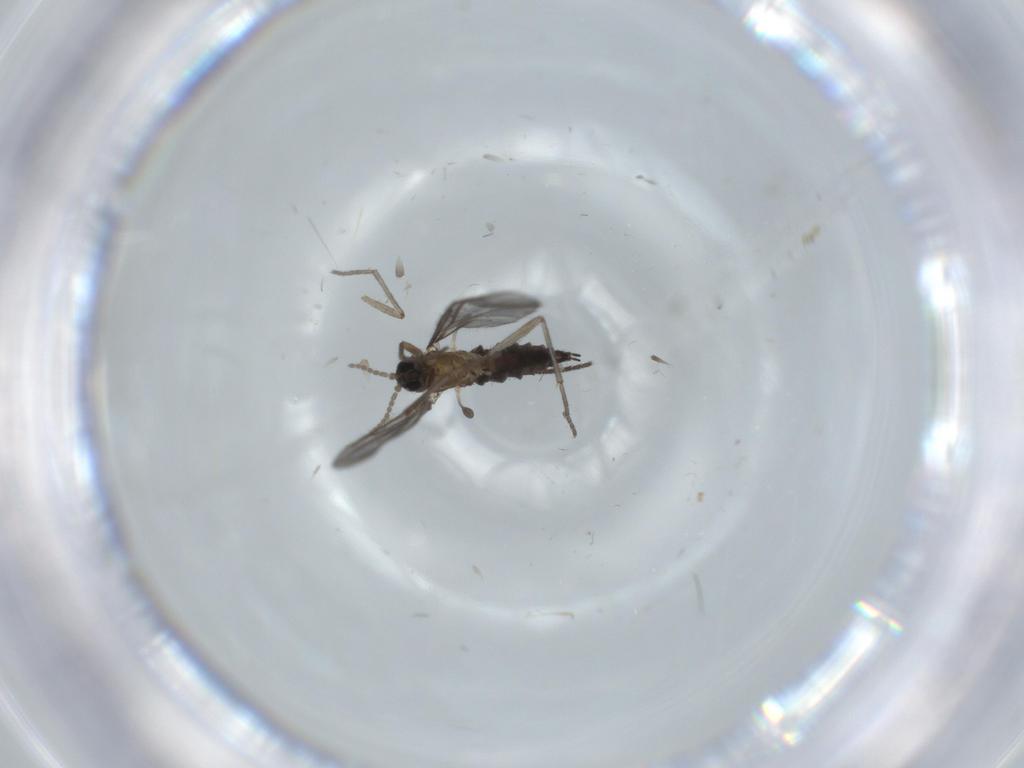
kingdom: Animalia
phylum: Arthropoda
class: Insecta
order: Diptera
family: Sciaridae
